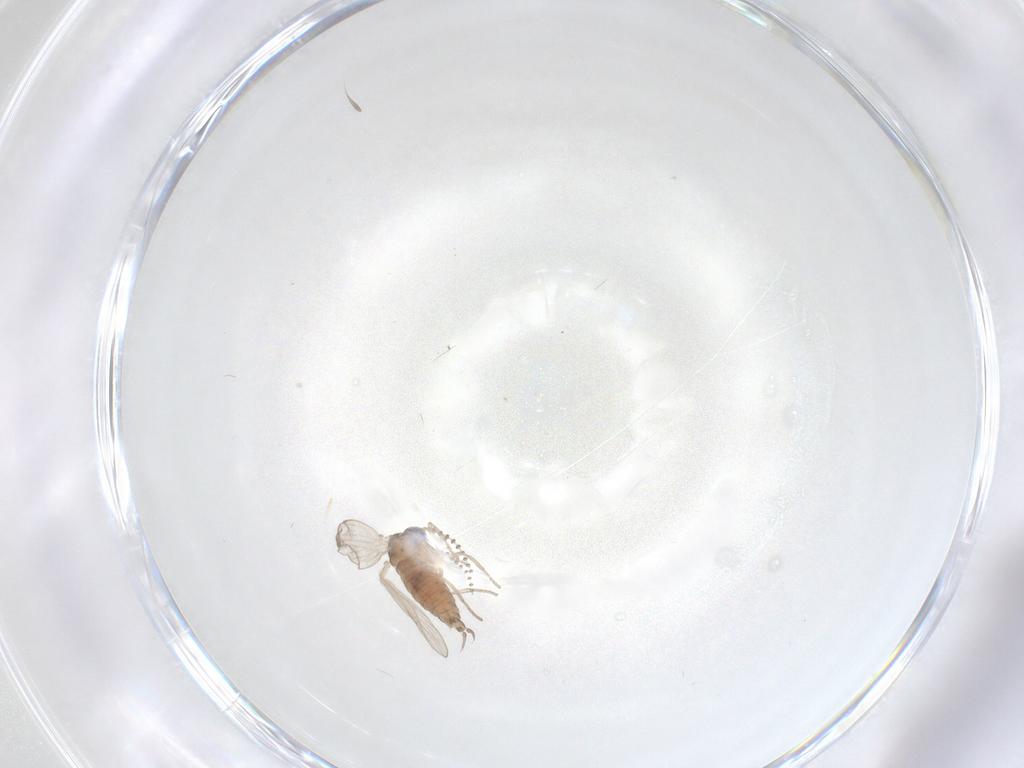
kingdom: Animalia
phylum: Arthropoda
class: Insecta
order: Diptera
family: Psychodidae
